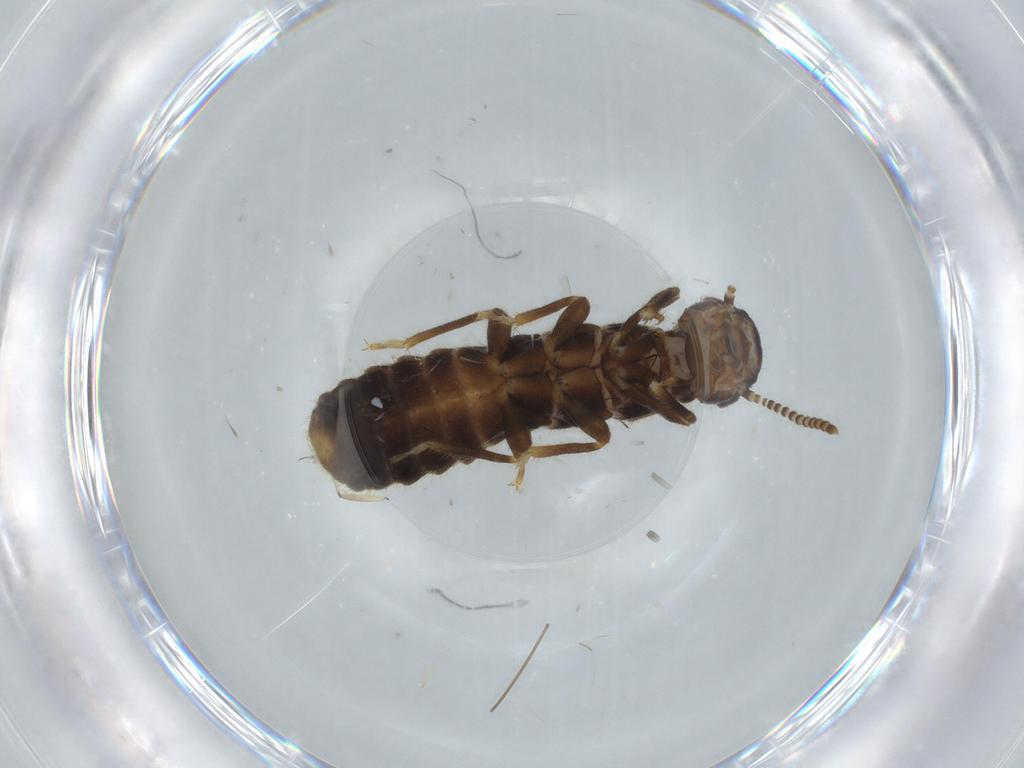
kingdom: Animalia
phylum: Arthropoda
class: Insecta
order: Blattodea
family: Termitidae
